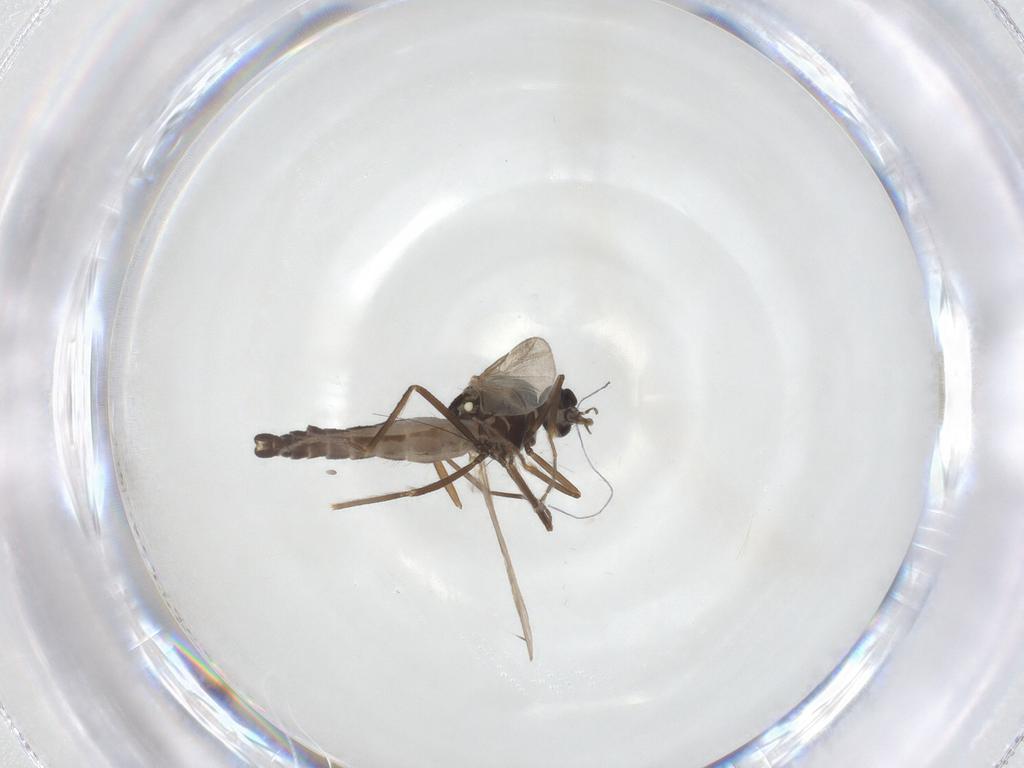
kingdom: Animalia
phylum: Arthropoda
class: Insecta
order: Diptera
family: Ceratopogonidae
